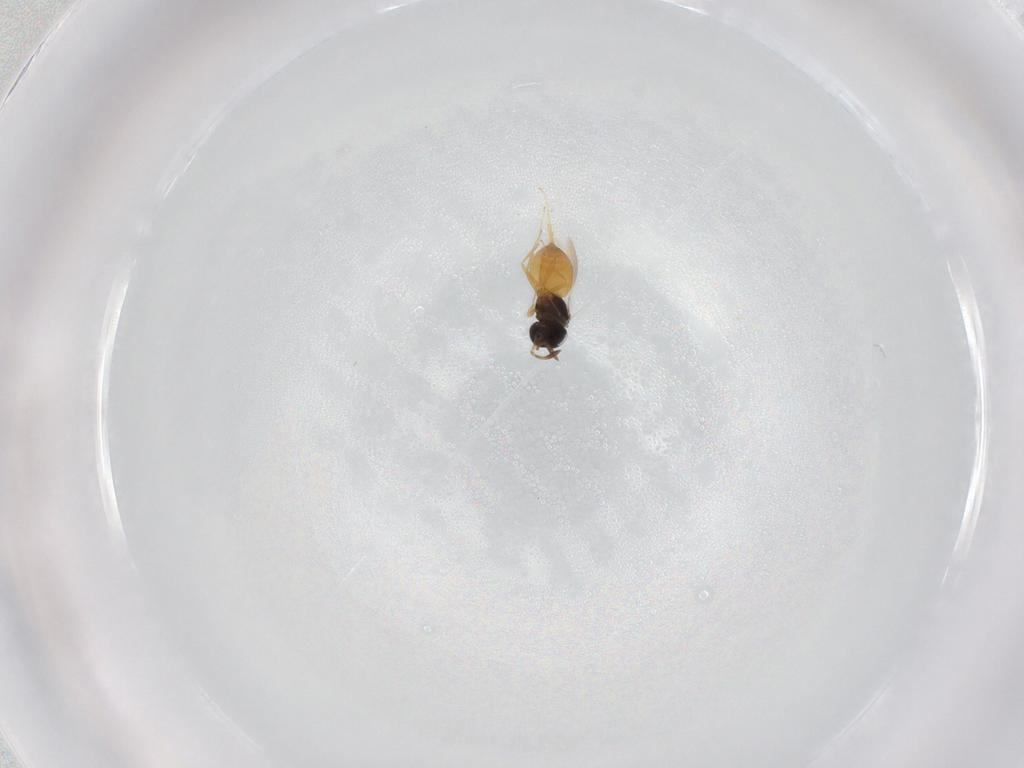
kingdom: Animalia
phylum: Arthropoda
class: Insecta
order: Hymenoptera
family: Scelionidae
